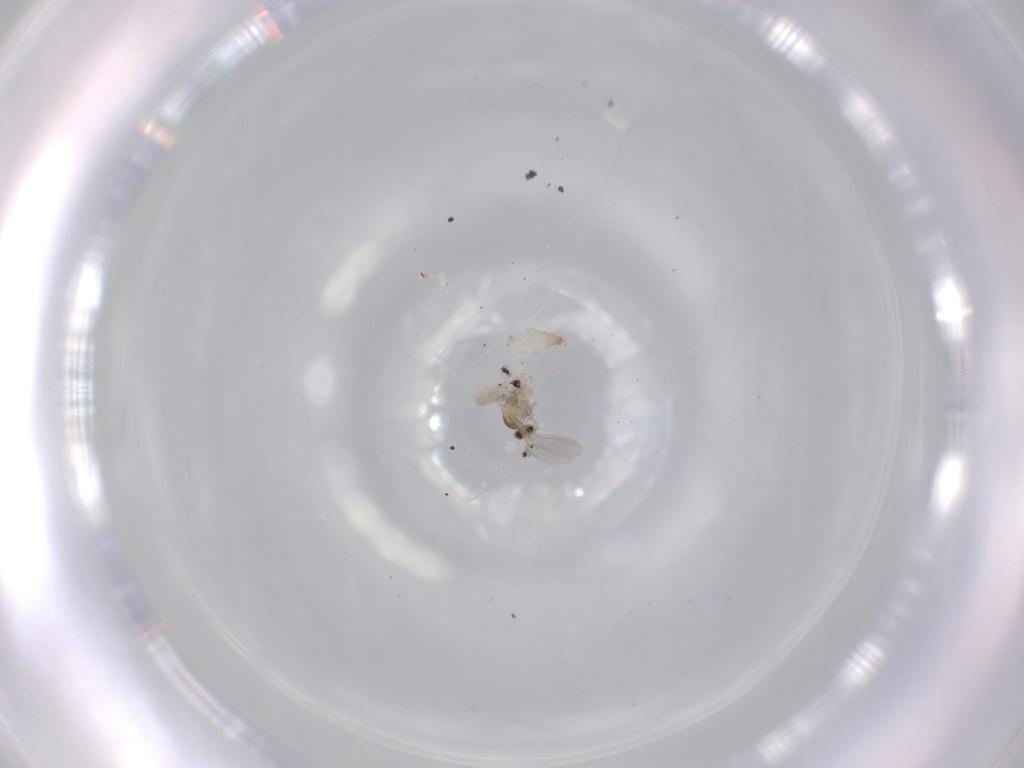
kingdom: Animalia
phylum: Arthropoda
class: Insecta
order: Diptera
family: Cecidomyiidae
